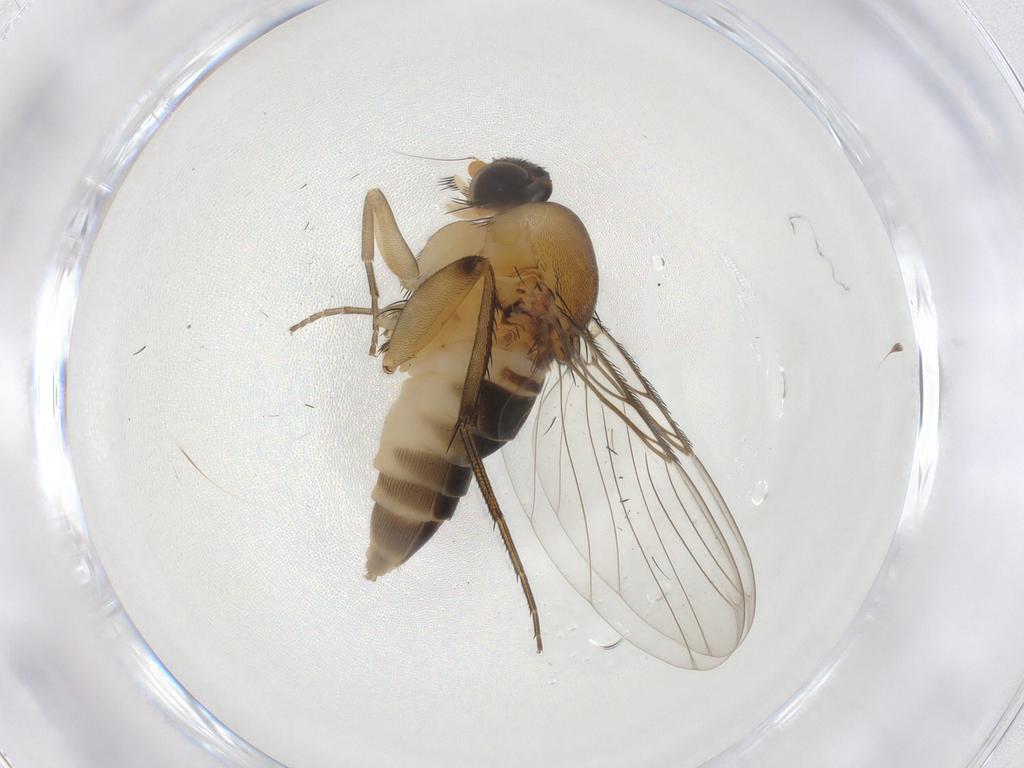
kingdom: Animalia
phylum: Arthropoda
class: Insecta
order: Diptera
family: Phoridae
